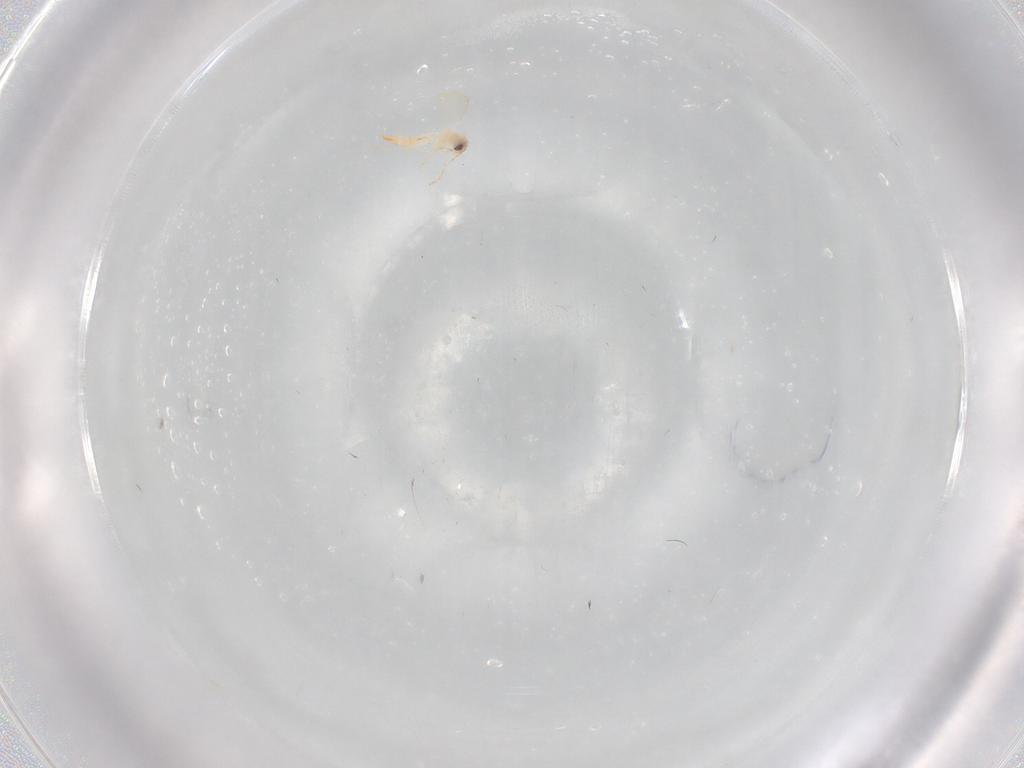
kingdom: Animalia
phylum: Arthropoda
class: Insecta
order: Hemiptera
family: Aleyrodidae
